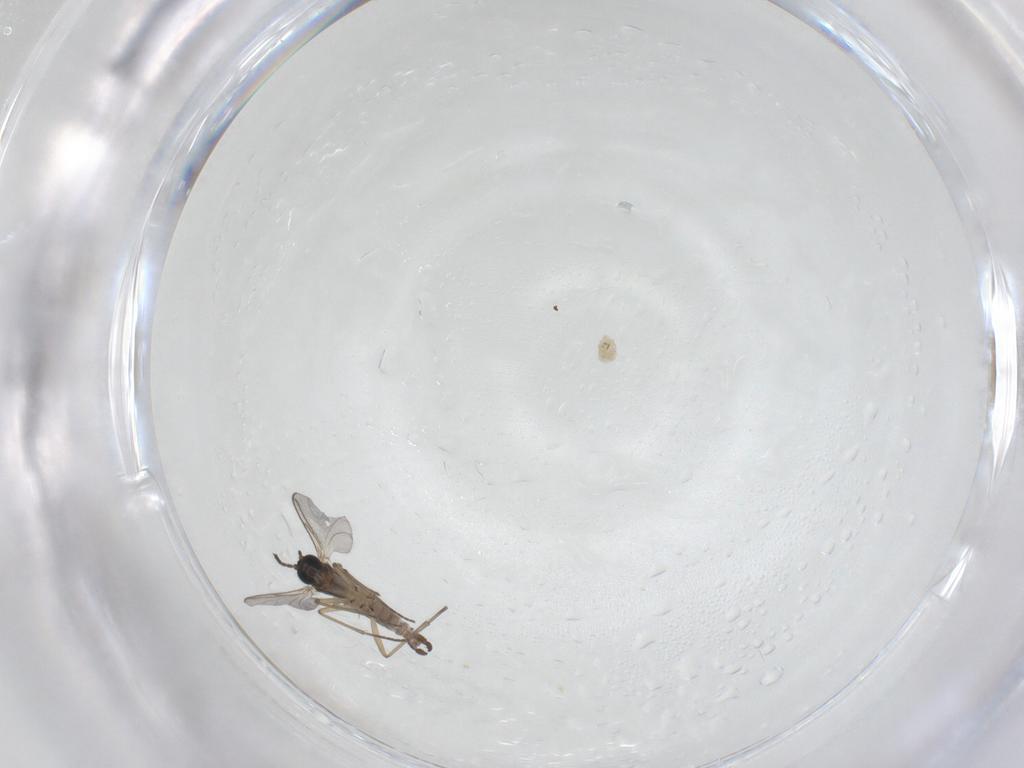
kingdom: Animalia
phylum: Arthropoda
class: Insecta
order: Diptera
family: Sciaridae
